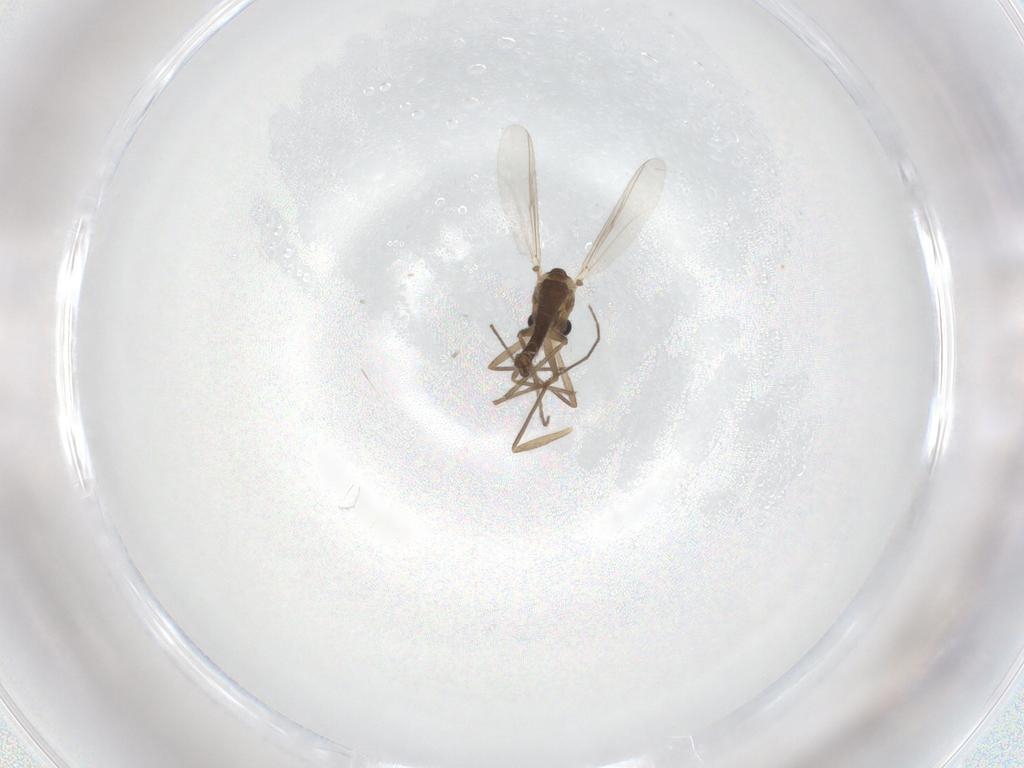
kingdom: Animalia
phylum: Arthropoda
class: Insecta
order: Diptera
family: Chironomidae
